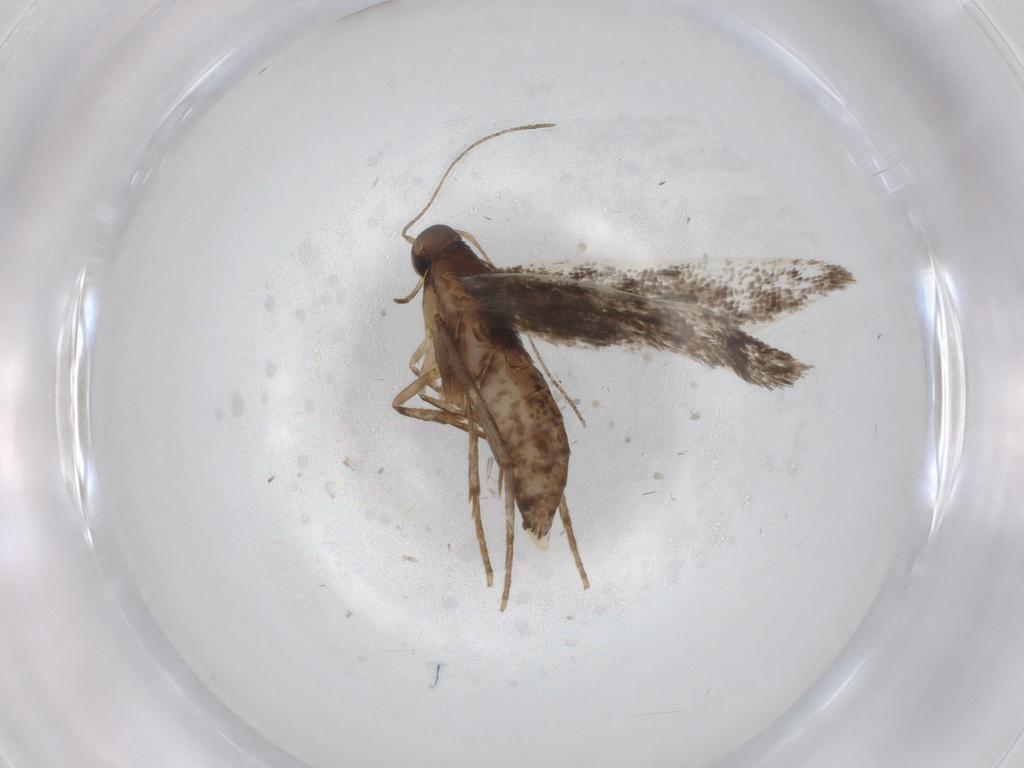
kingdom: Animalia
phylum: Arthropoda
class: Insecta
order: Lepidoptera
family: Crambidae
